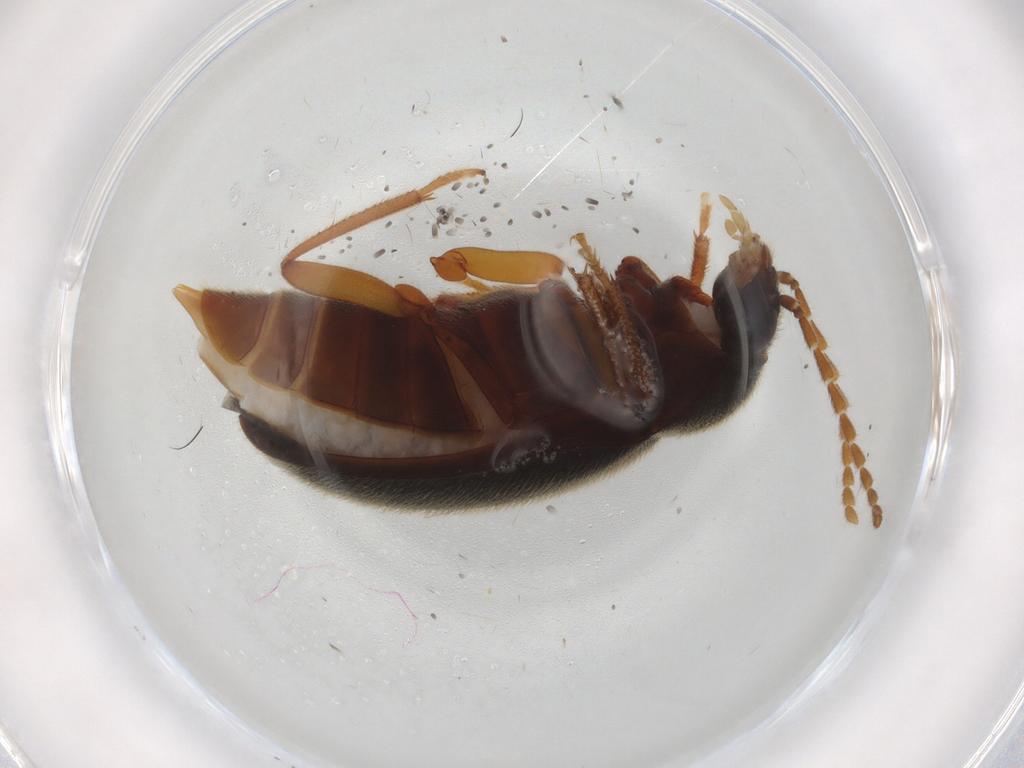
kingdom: Animalia
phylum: Arthropoda
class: Insecta
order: Coleoptera
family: Ptilodactylidae
